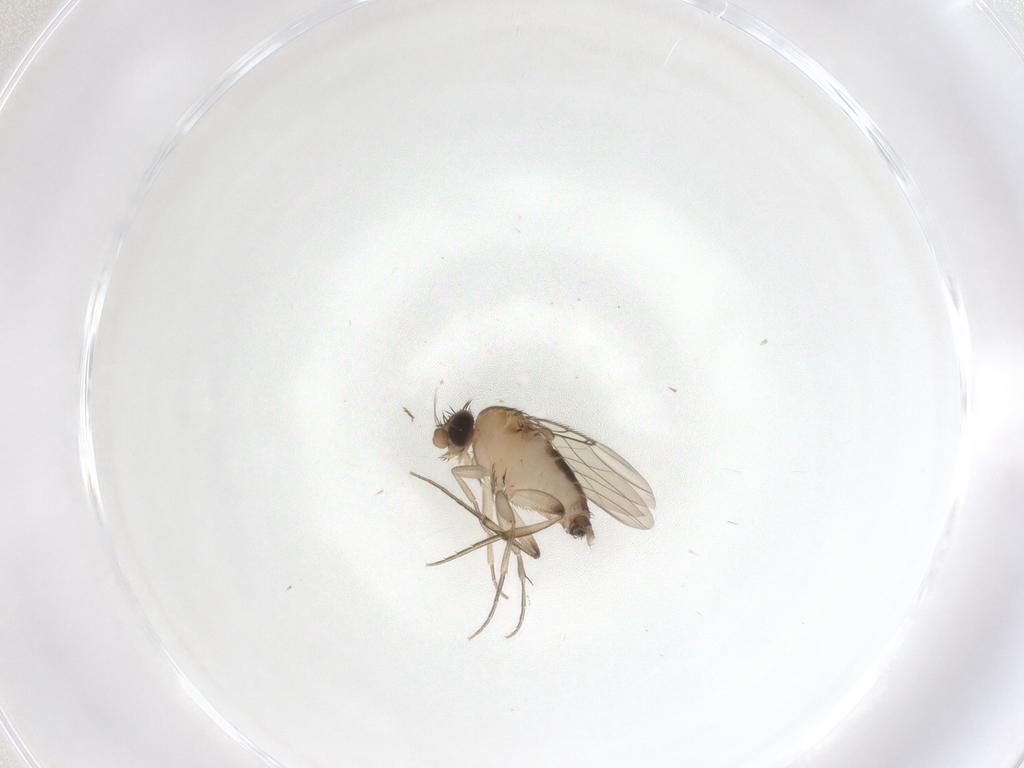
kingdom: Animalia
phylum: Arthropoda
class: Insecta
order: Diptera
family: Phoridae
